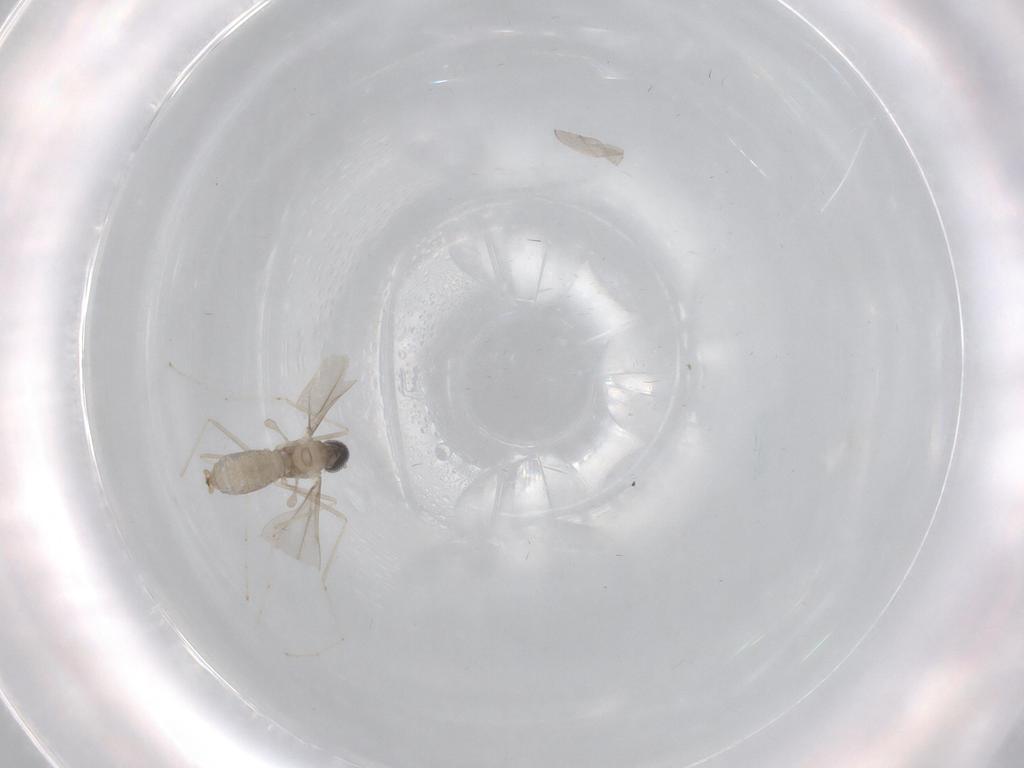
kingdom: Animalia
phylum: Arthropoda
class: Insecta
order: Diptera
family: Cecidomyiidae
